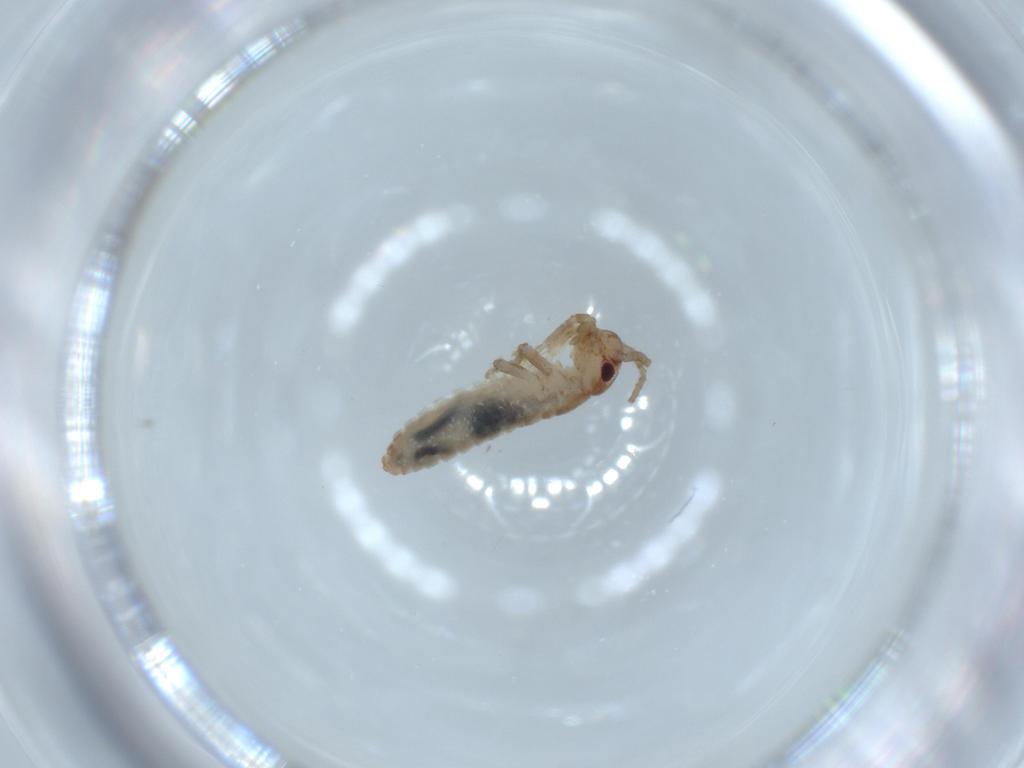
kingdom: Animalia
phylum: Arthropoda
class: Insecta
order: Orthoptera
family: Mogoplistidae
